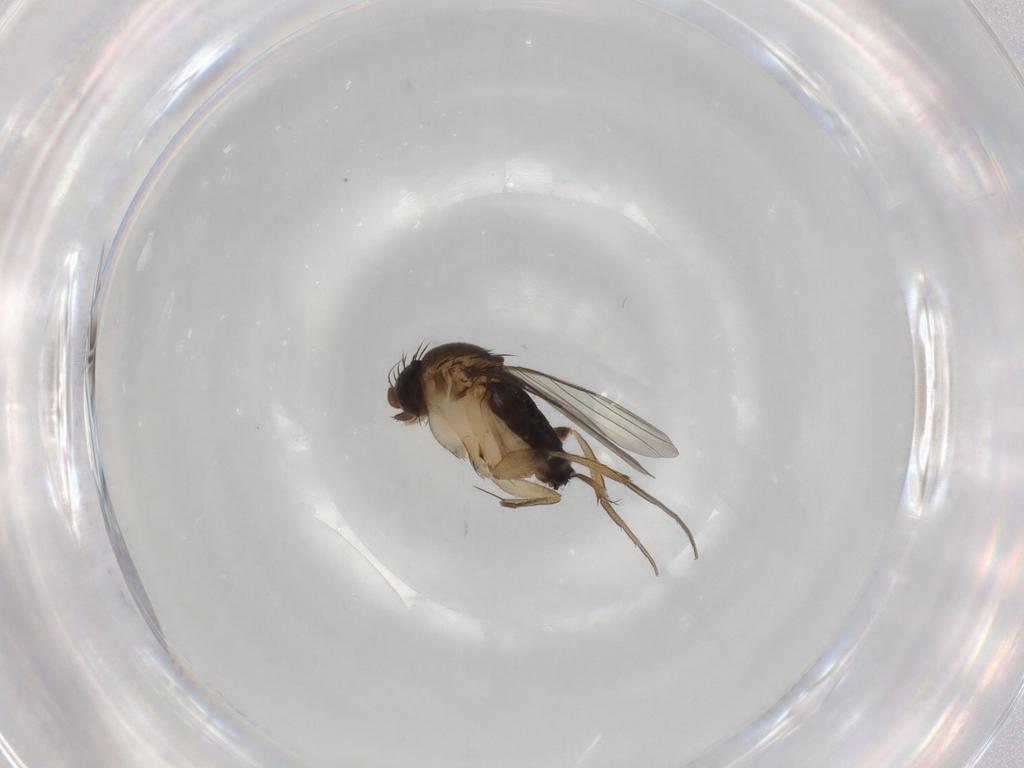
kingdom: Animalia
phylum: Arthropoda
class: Insecta
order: Diptera
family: Phoridae
